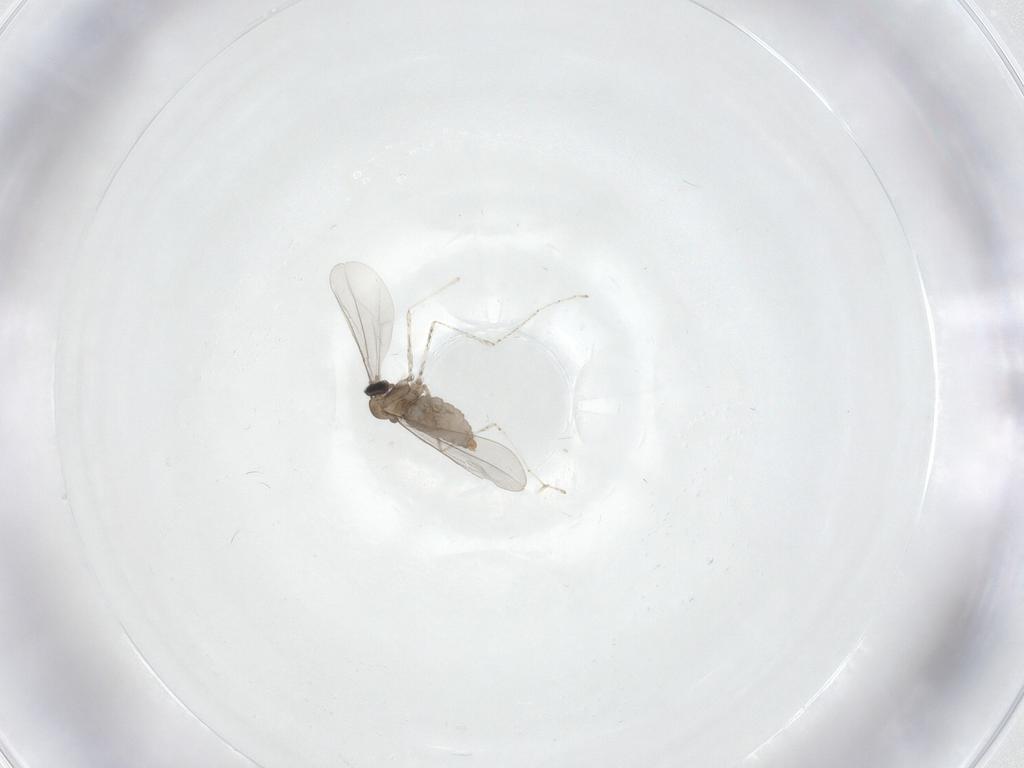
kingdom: Animalia
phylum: Arthropoda
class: Insecta
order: Diptera
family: Cecidomyiidae
